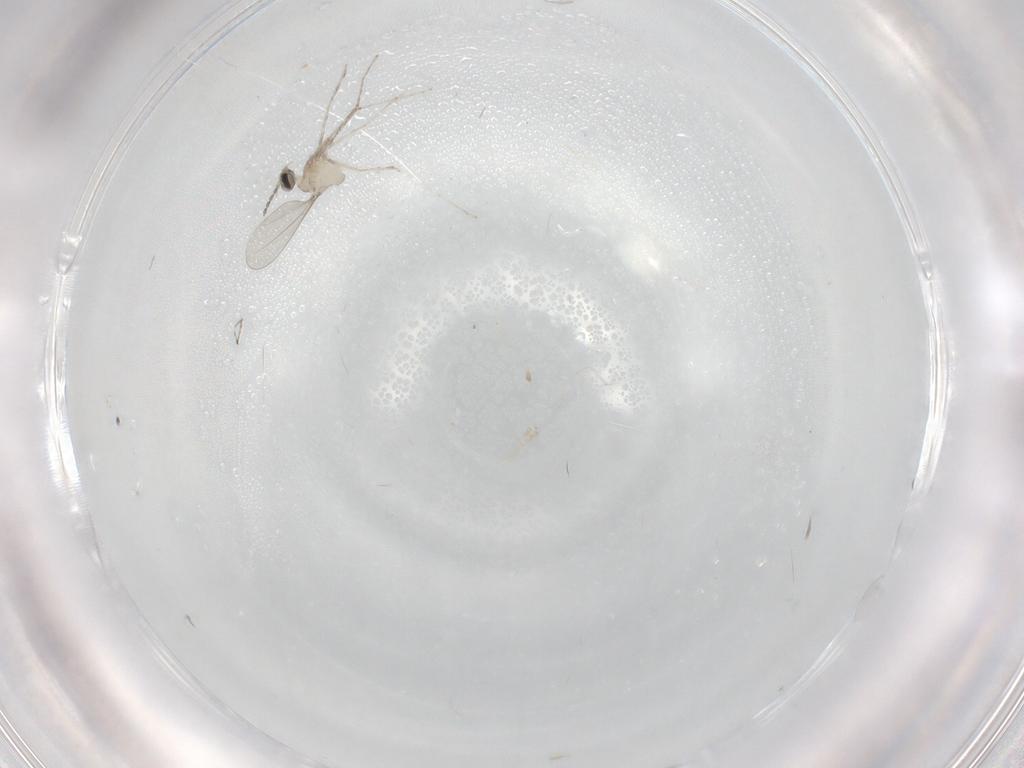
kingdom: Animalia
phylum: Arthropoda
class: Insecta
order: Diptera
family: Cecidomyiidae
